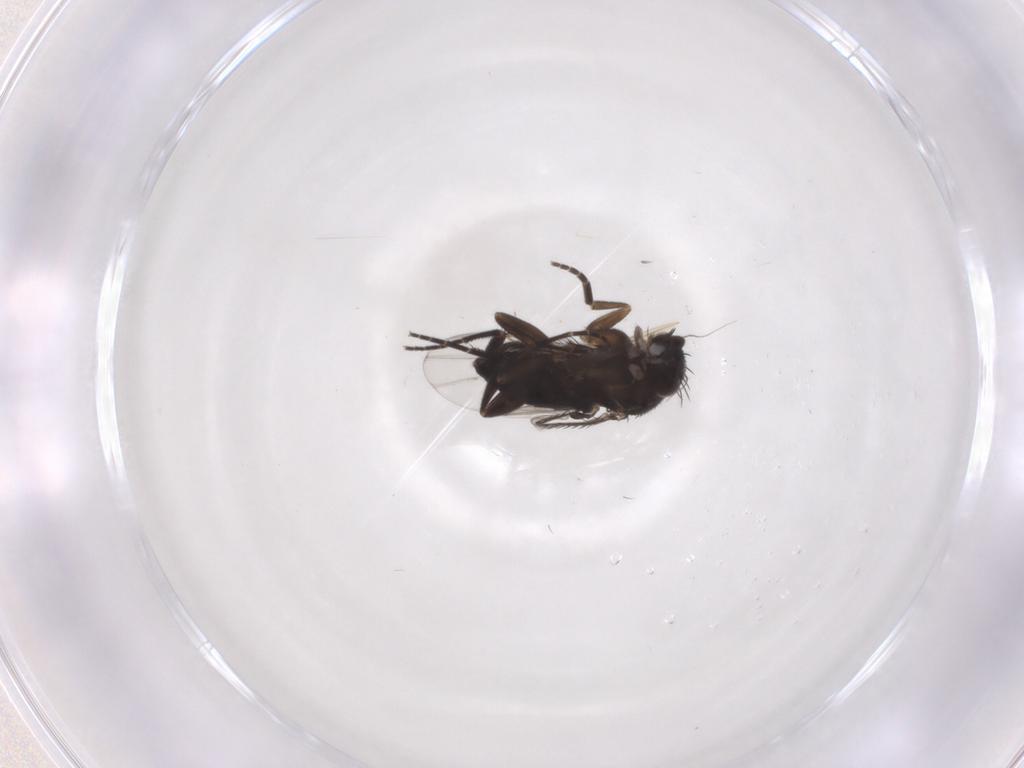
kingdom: Animalia
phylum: Arthropoda
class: Insecta
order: Diptera
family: Phoridae
